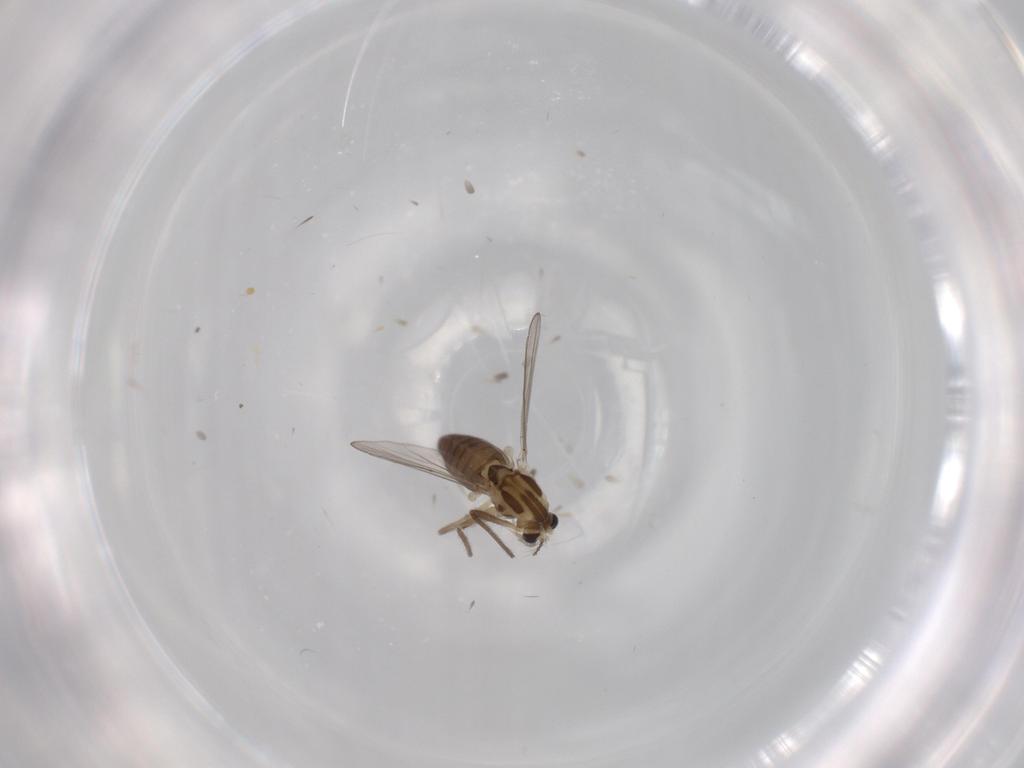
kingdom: Animalia
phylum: Arthropoda
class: Insecta
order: Diptera
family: Chironomidae
